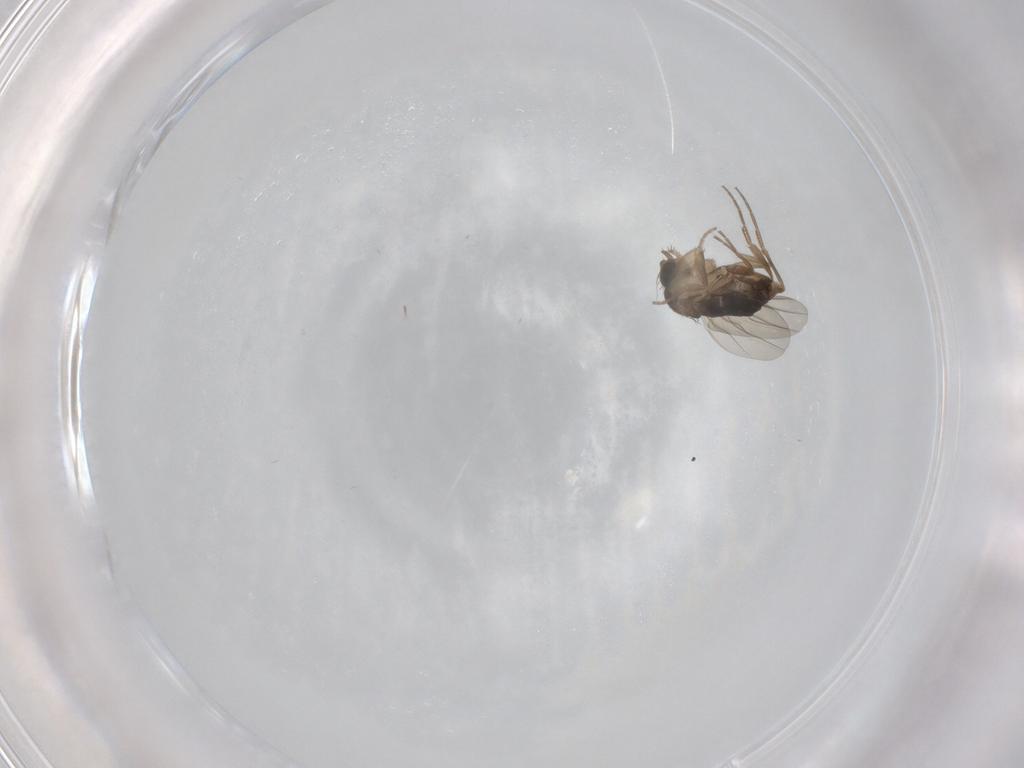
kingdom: Animalia
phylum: Arthropoda
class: Insecta
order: Diptera
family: Phoridae
